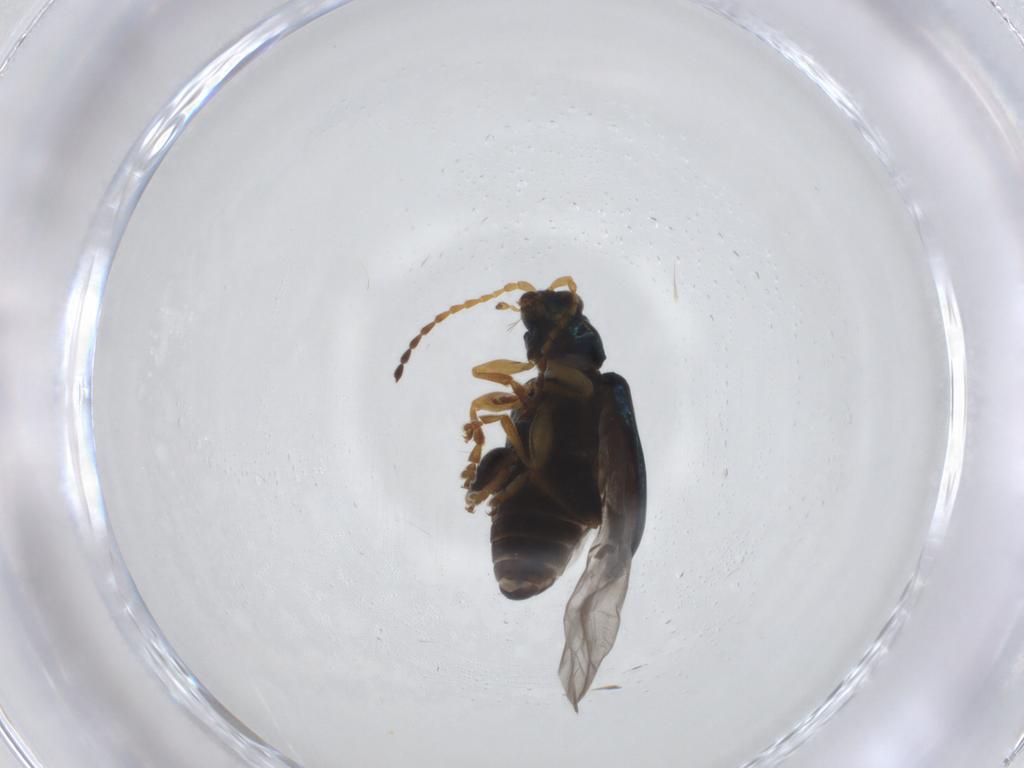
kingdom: Animalia
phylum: Arthropoda
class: Insecta
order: Coleoptera
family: Chrysomelidae
